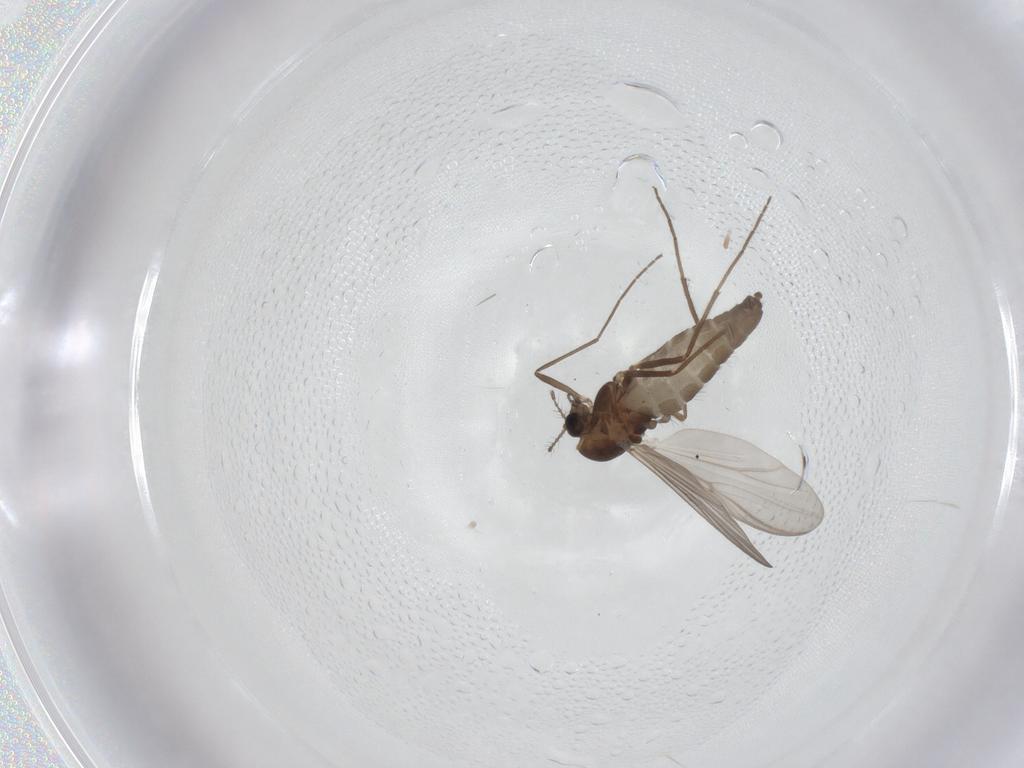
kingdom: Animalia
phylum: Arthropoda
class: Insecta
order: Diptera
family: Chironomidae
